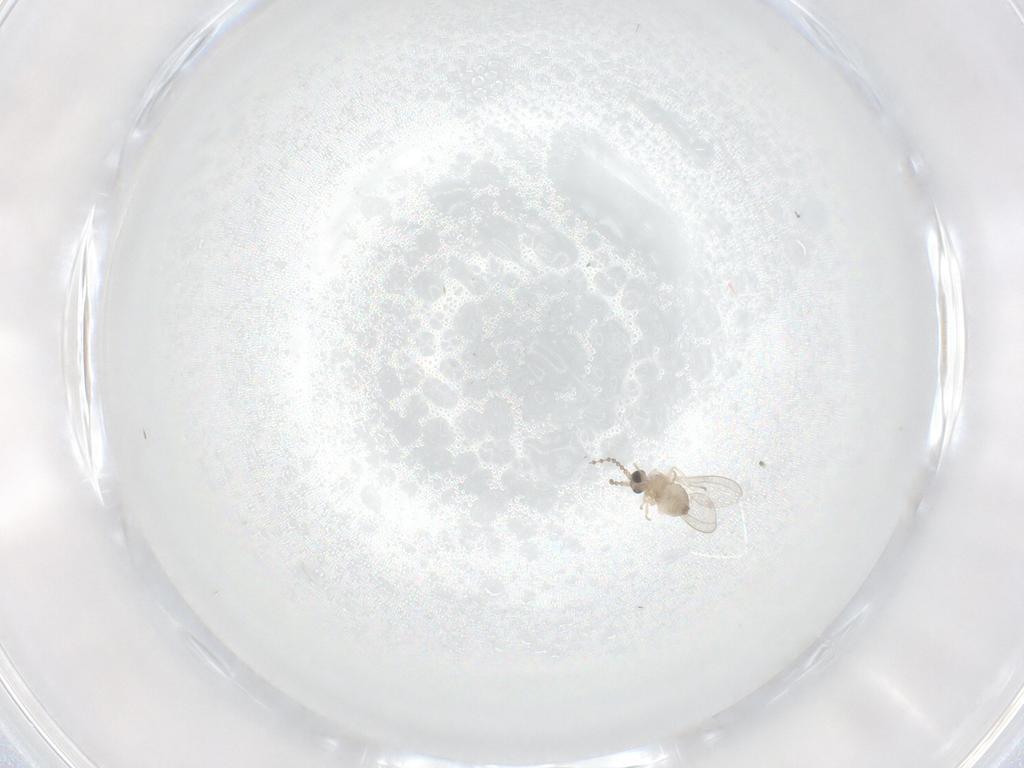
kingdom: Animalia
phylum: Arthropoda
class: Insecta
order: Diptera
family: Cecidomyiidae
